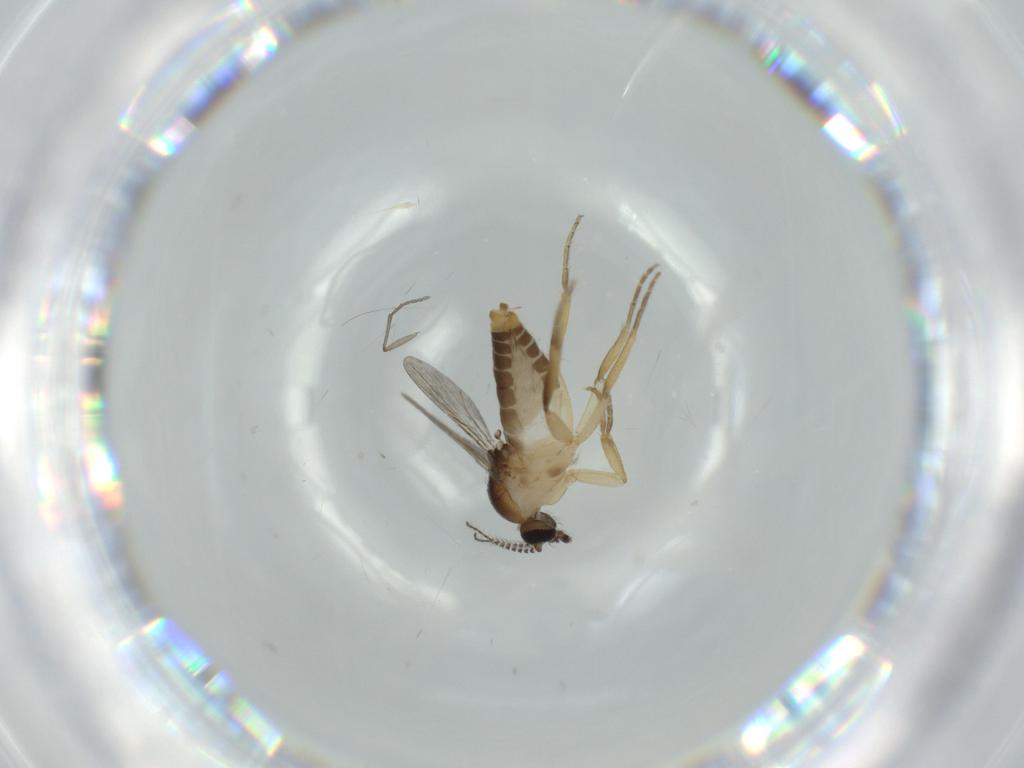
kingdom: Animalia
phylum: Arthropoda
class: Insecta
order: Diptera
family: Ceratopogonidae
